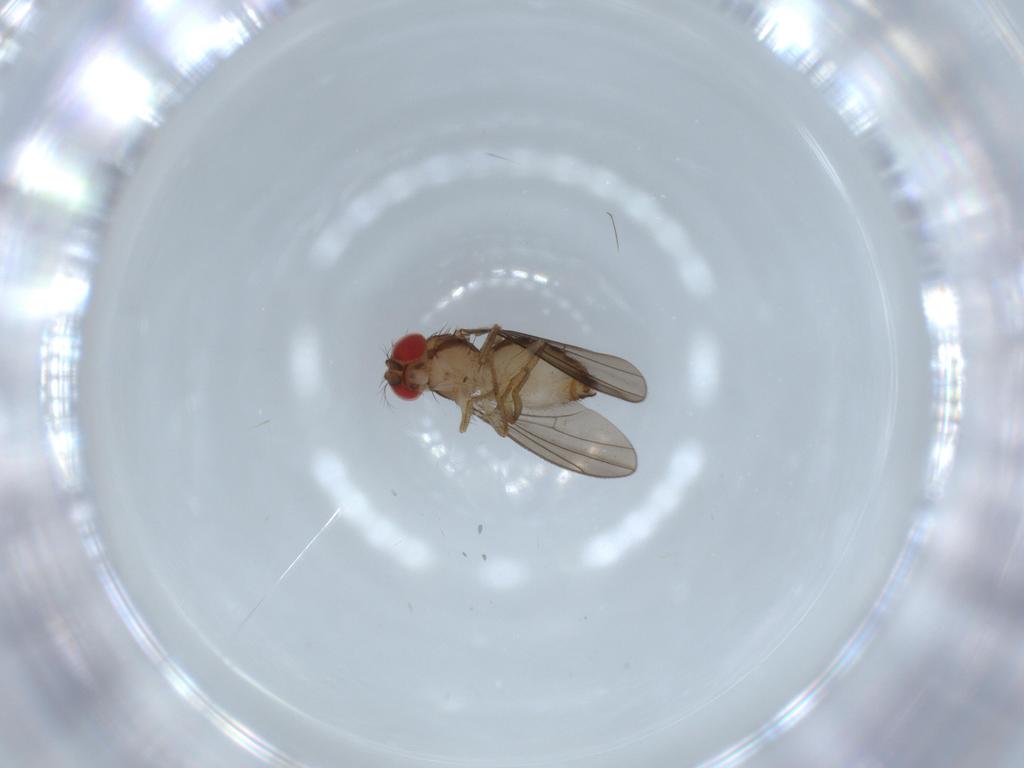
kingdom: Animalia
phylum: Arthropoda
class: Insecta
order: Diptera
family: Drosophilidae
